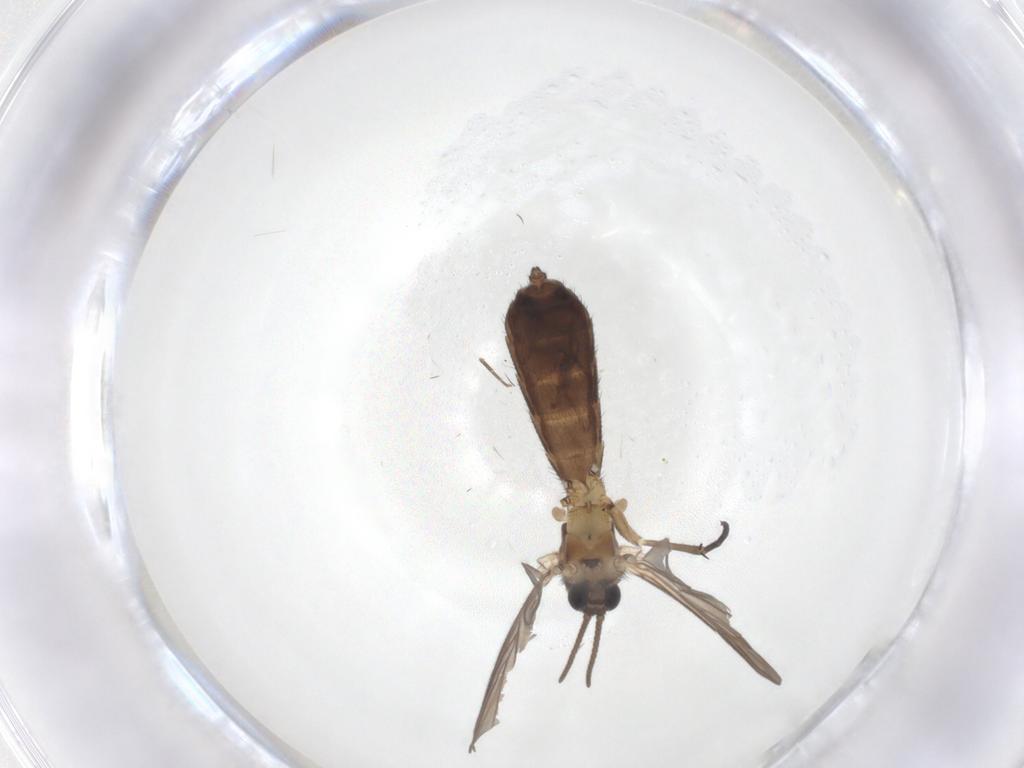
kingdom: Animalia
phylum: Arthropoda
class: Insecta
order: Diptera
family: Keroplatidae
